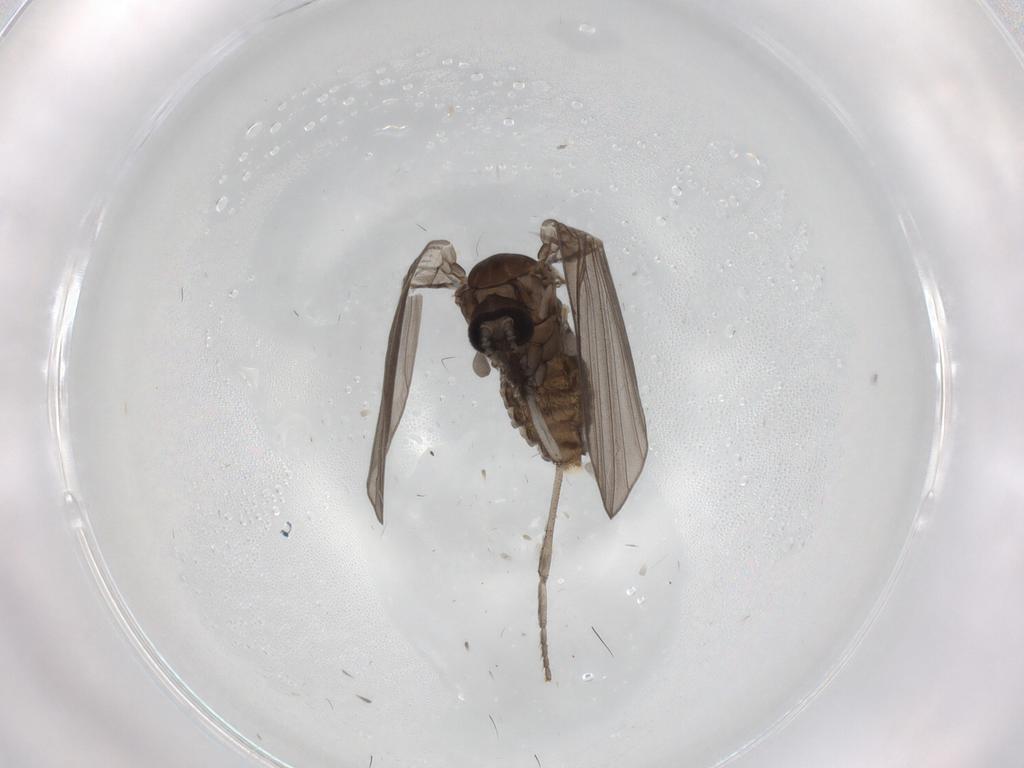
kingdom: Animalia
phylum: Arthropoda
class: Insecta
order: Diptera
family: Psychodidae
